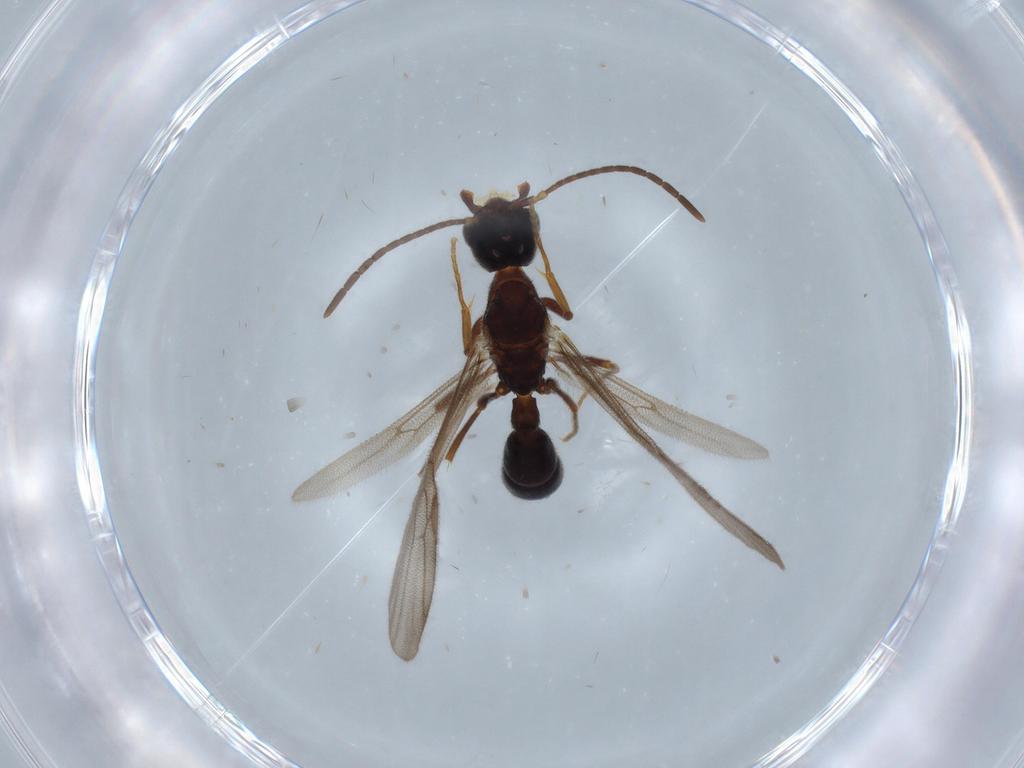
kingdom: Animalia
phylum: Arthropoda
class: Insecta
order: Hymenoptera
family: Formicidae
